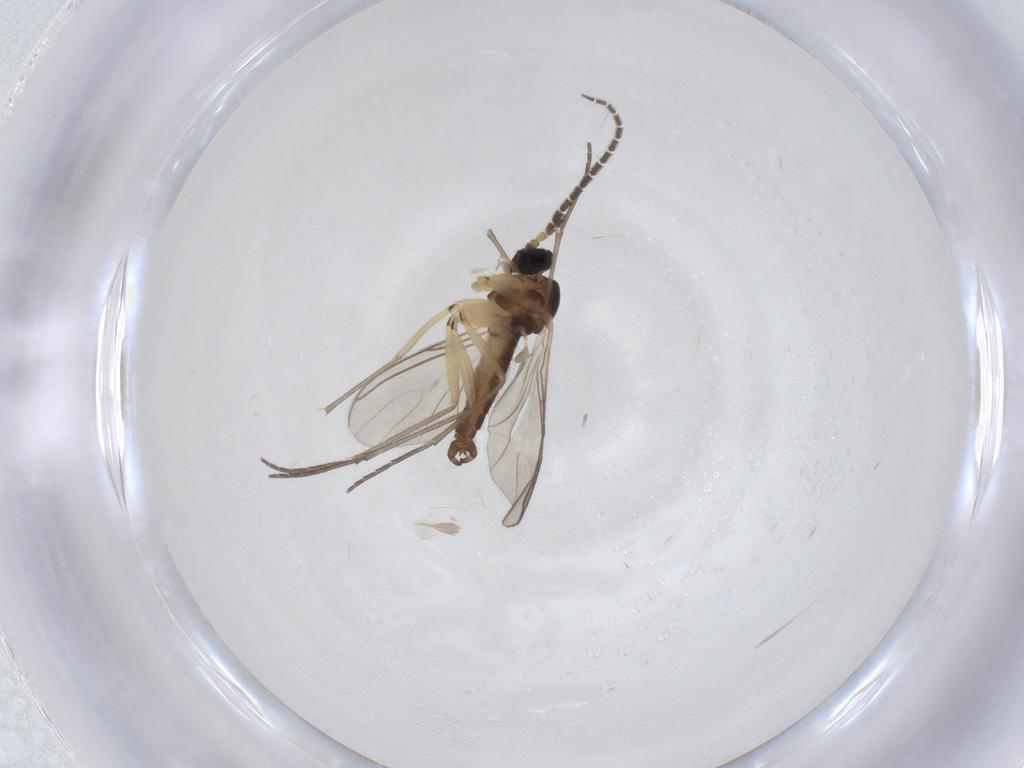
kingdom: Animalia
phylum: Arthropoda
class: Insecta
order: Diptera
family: Sciaridae
